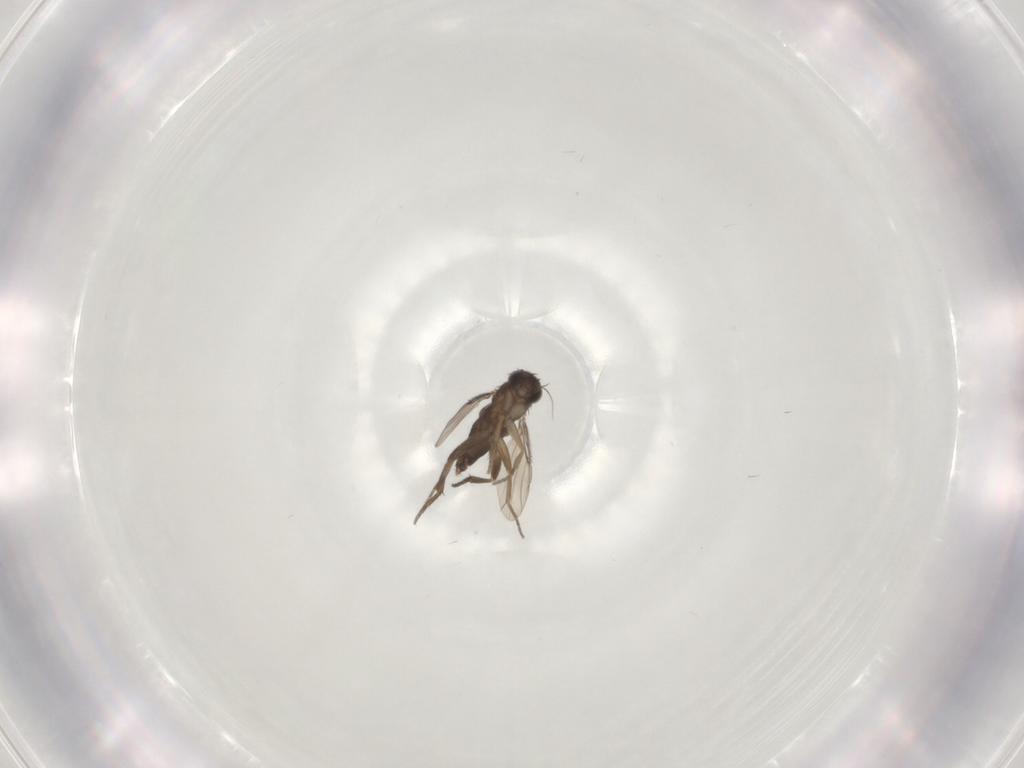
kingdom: Animalia
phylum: Arthropoda
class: Insecta
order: Diptera
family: Phoridae
